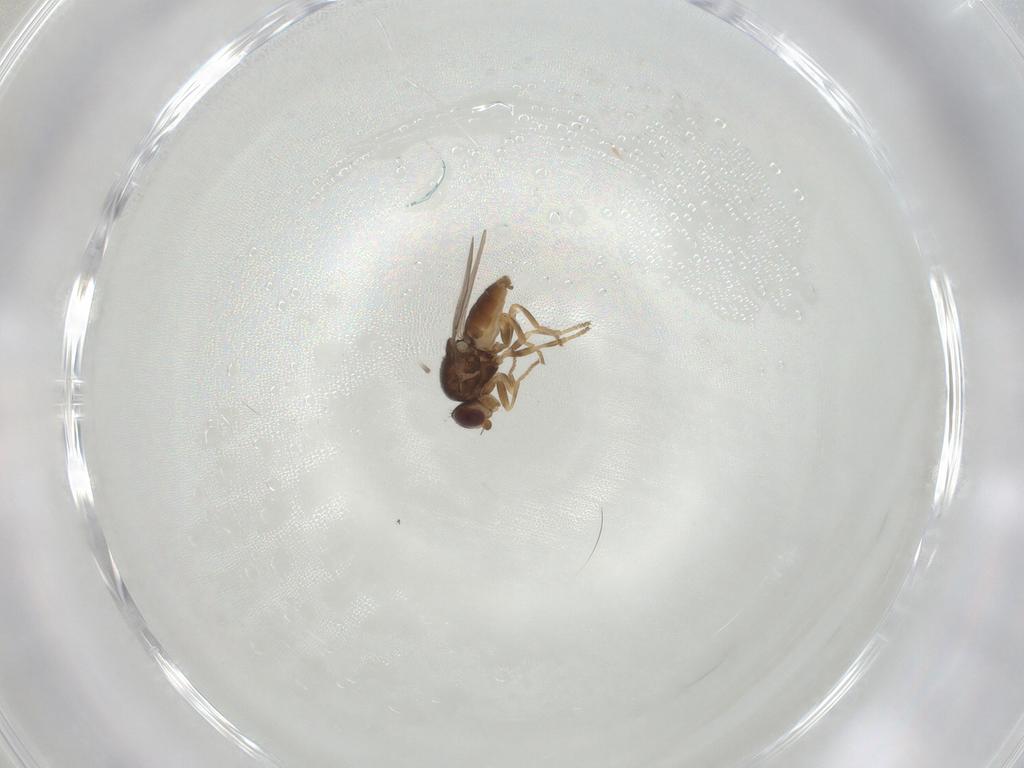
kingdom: Animalia
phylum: Arthropoda
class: Insecta
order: Diptera
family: Chloropidae
